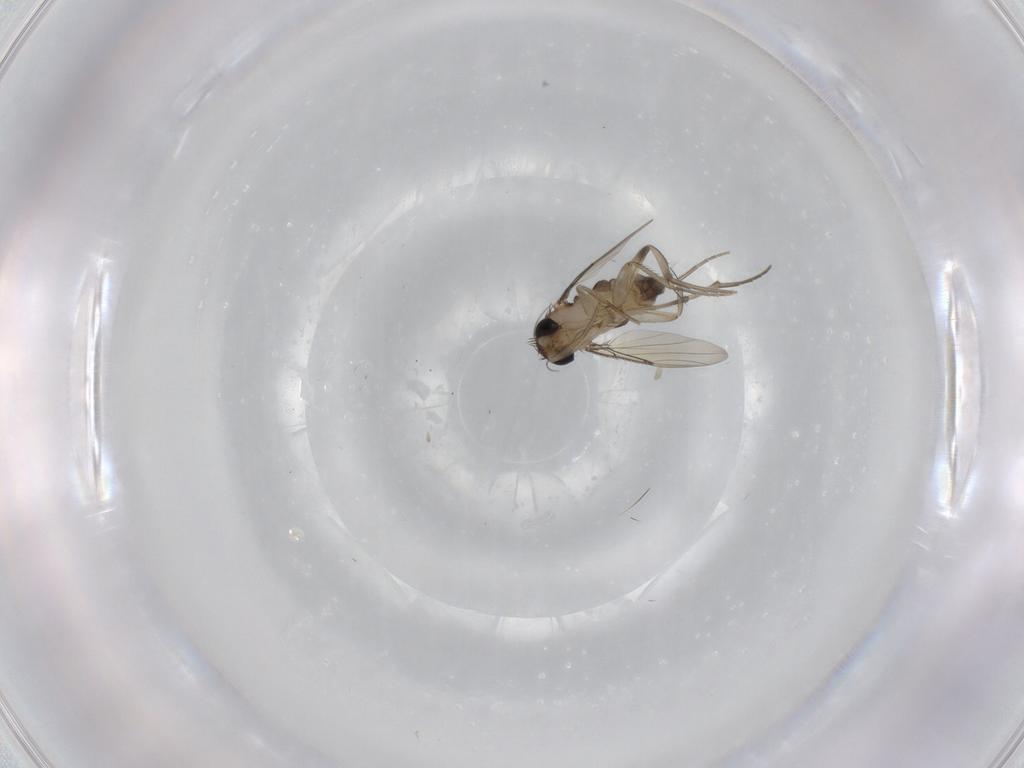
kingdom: Animalia
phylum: Arthropoda
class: Insecta
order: Diptera
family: Phoridae
